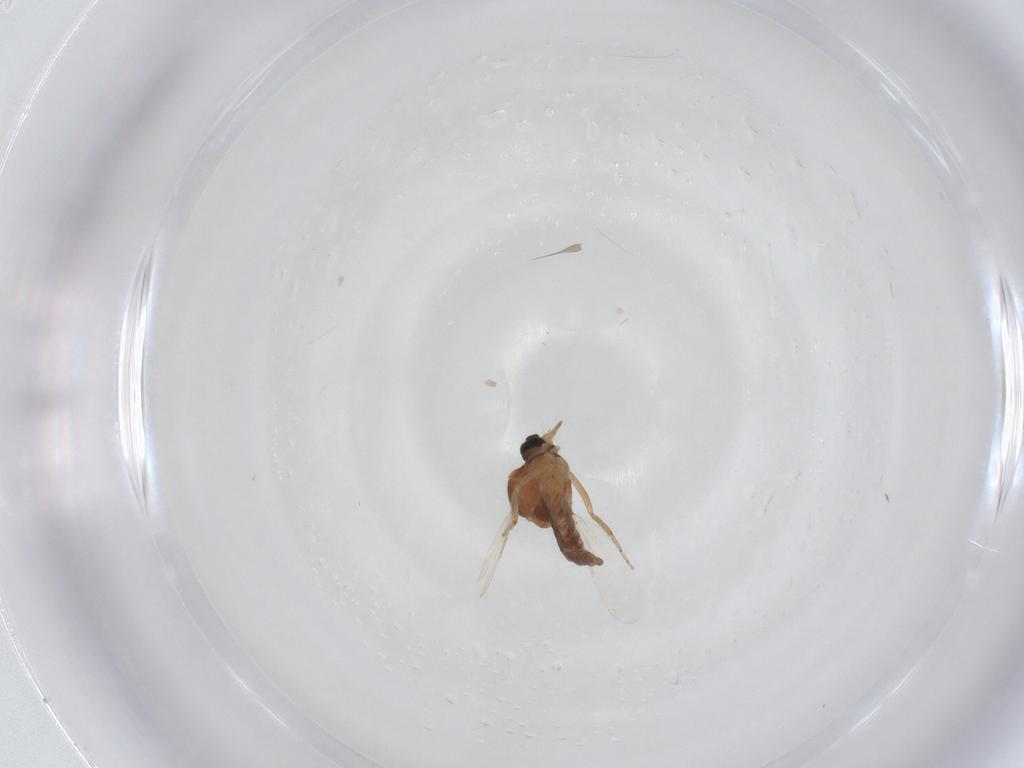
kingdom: Animalia
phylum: Arthropoda
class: Insecta
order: Diptera
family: Ceratopogonidae
